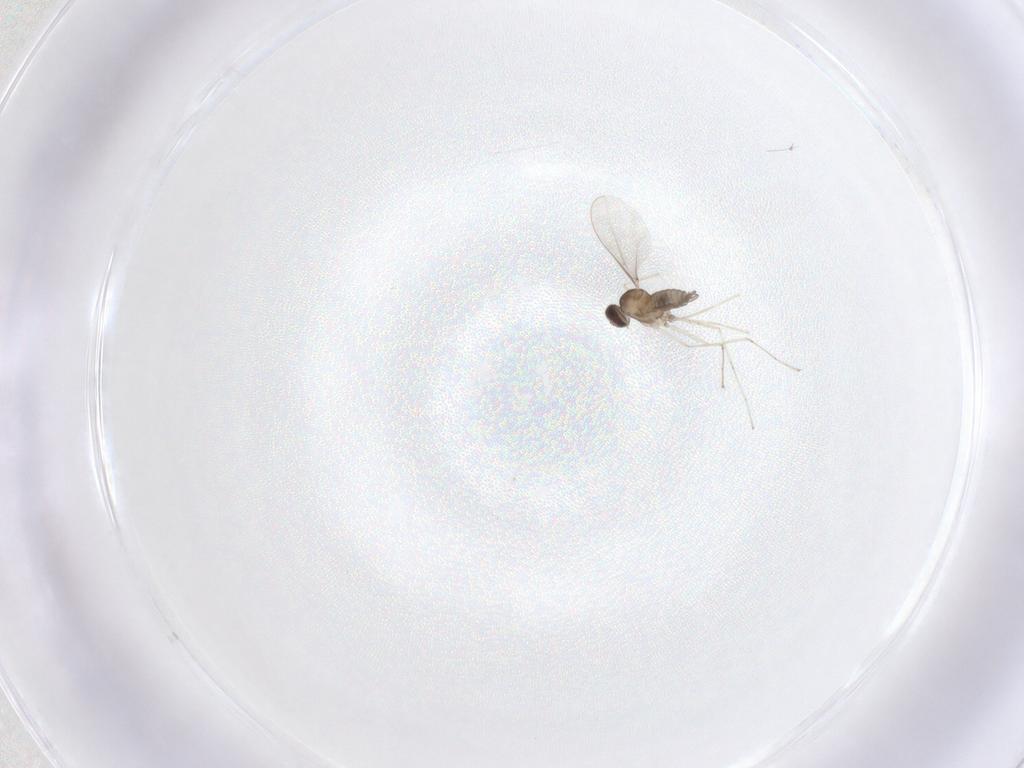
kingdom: Animalia
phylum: Arthropoda
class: Insecta
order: Diptera
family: Cecidomyiidae
